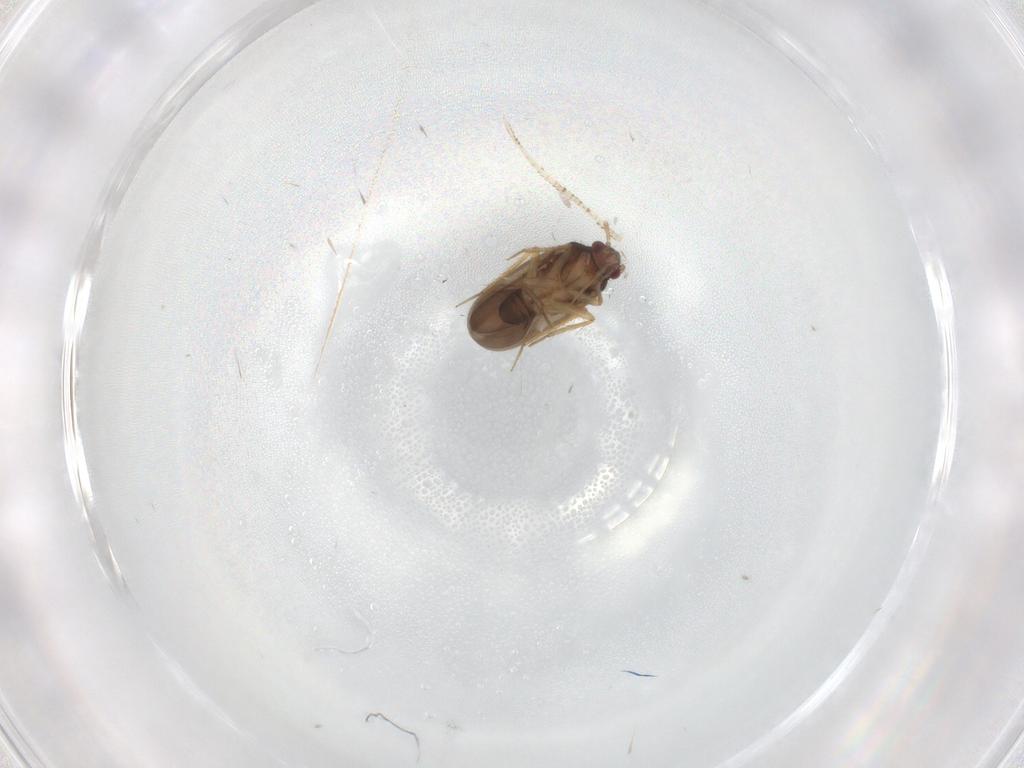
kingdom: Animalia
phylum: Arthropoda
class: Insecta
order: Hemiptera
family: Ceratocombidae
